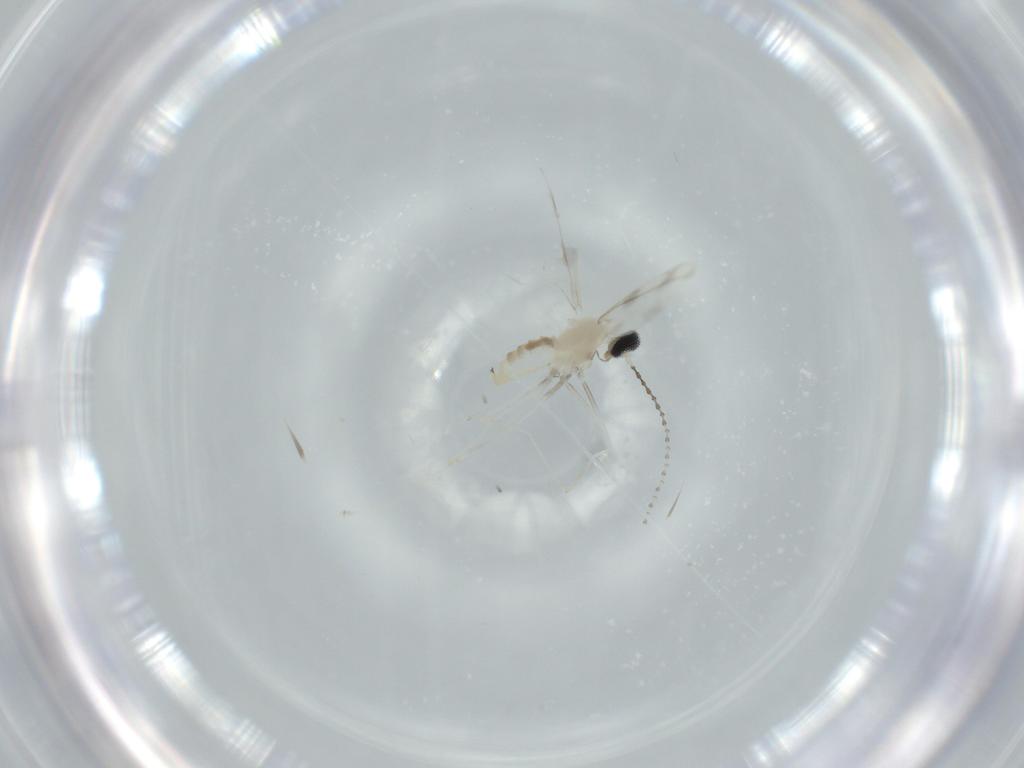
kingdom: Animalia
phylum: Arthropoda
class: Insecta
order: Diptera
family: Cecidomyiidae
